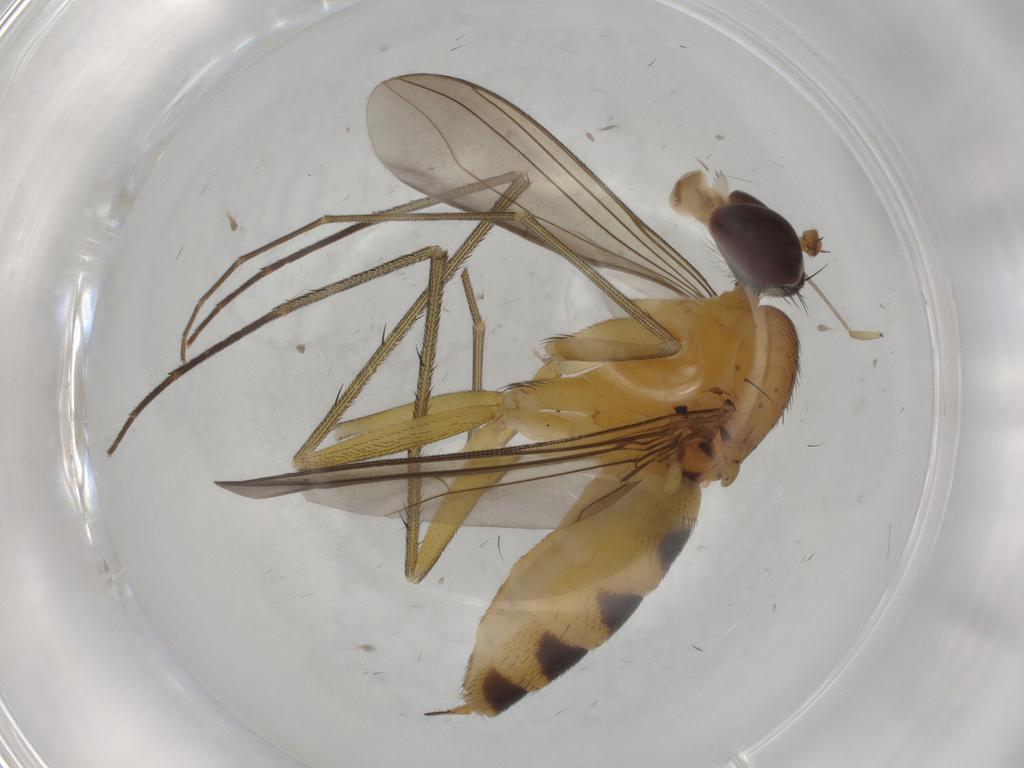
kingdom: Animalia
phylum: Arthropoda
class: Insecta
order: Diptera
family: Dolichopodidae
